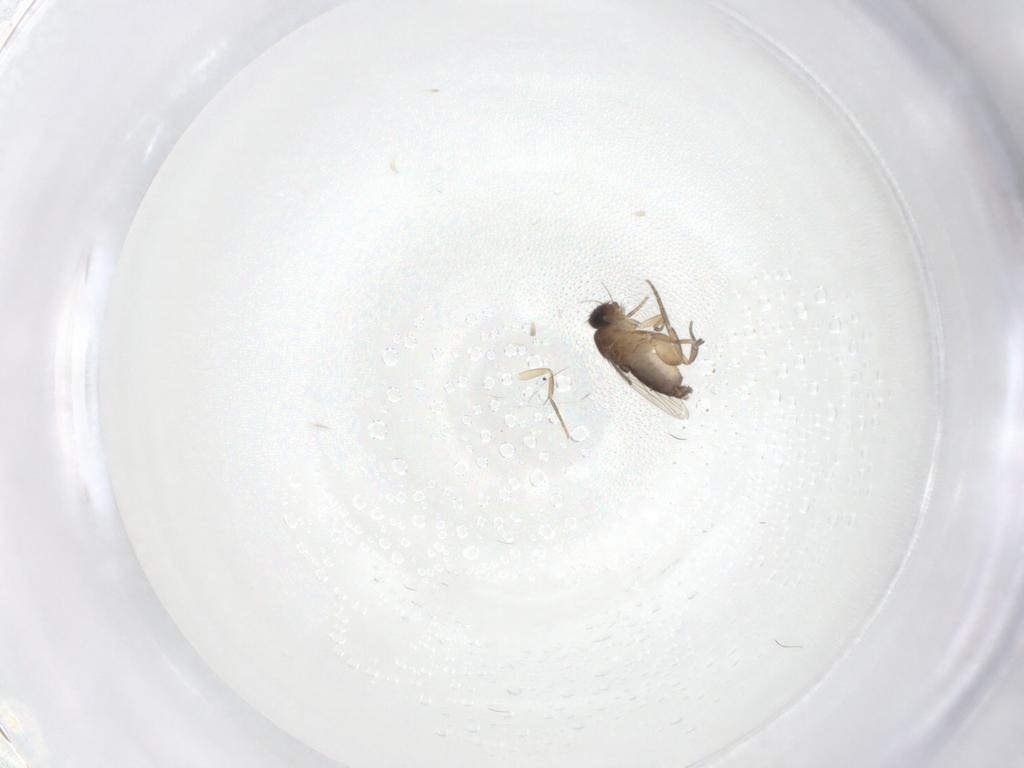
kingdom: Animalia
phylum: Arthropoda
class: Insecta
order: Diptera
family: Phoridae
